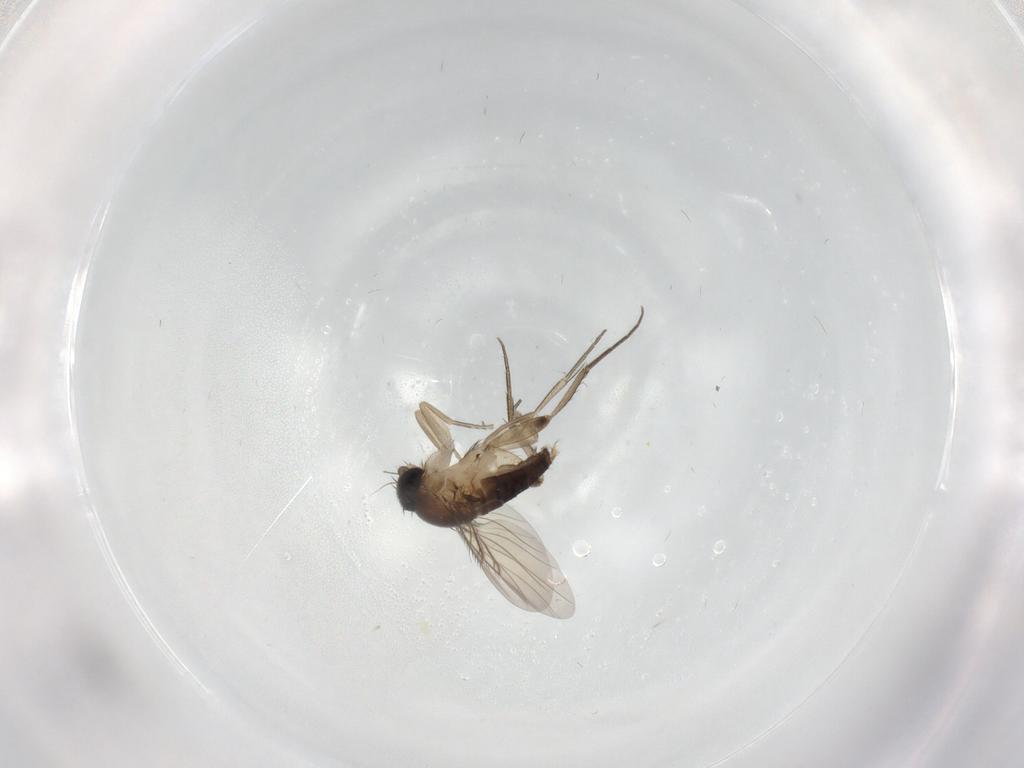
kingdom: Animalia
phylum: Arthropoda
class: Insecta
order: Diptera
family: Phoridae
